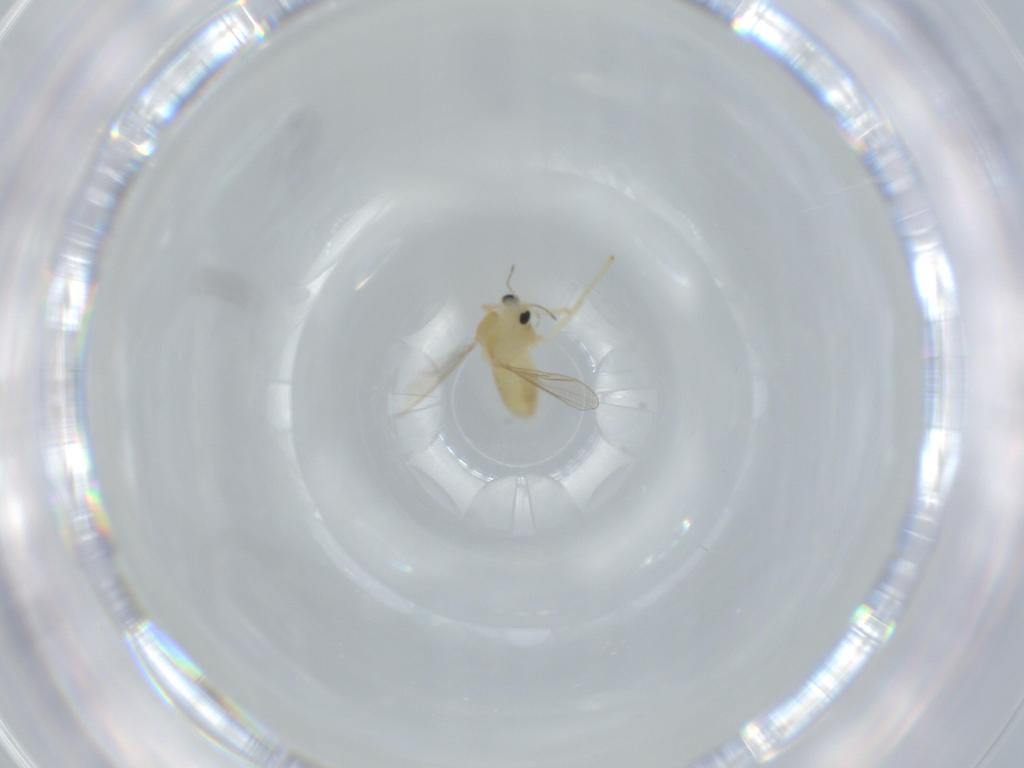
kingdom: Animalia
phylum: Arthropoda
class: Insecta
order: Diptera
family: Chironomidae
